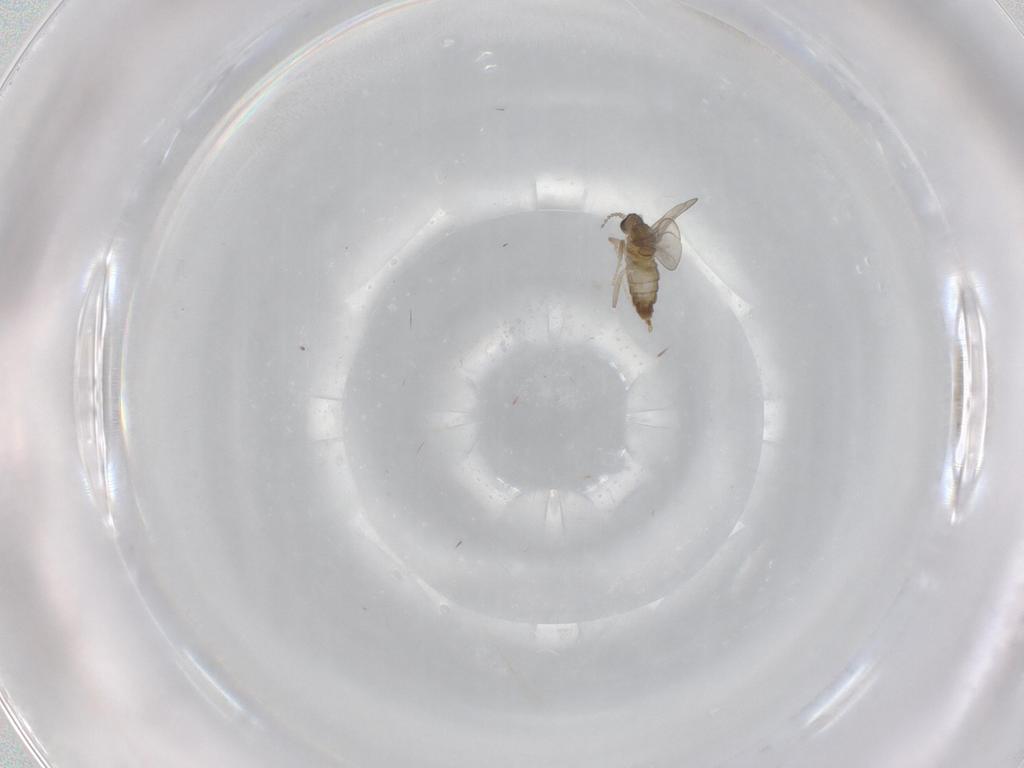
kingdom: Animalia
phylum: Arthropoda
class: Insecta
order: Diptera
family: Cecidomyiidae
